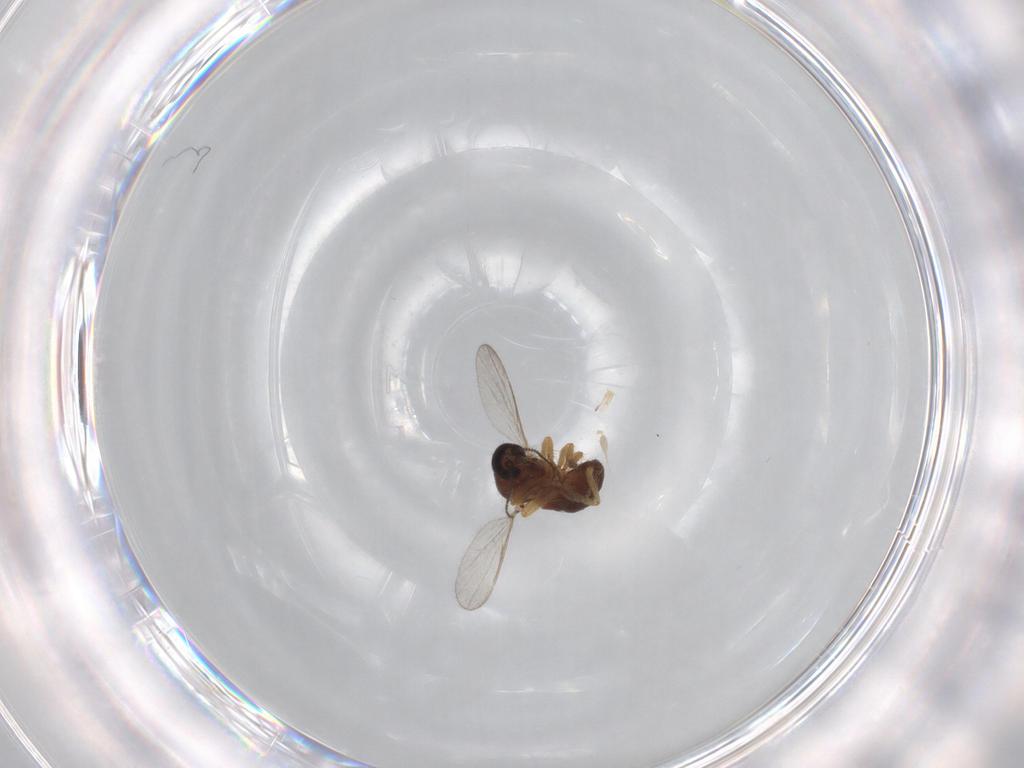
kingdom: Animalia
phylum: Arthropoda
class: Insecta
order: Diptera
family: Ceratopogonidae
